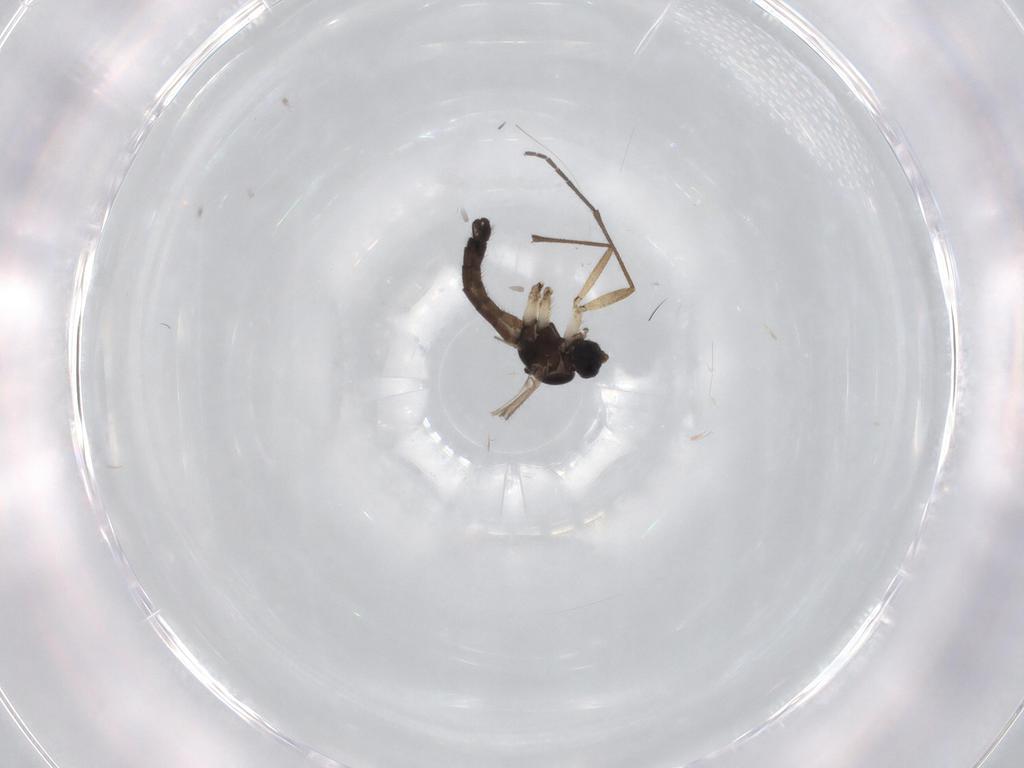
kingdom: Animalia
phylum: Arthropoda
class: Insecta
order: Diptera
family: Sciaridae
